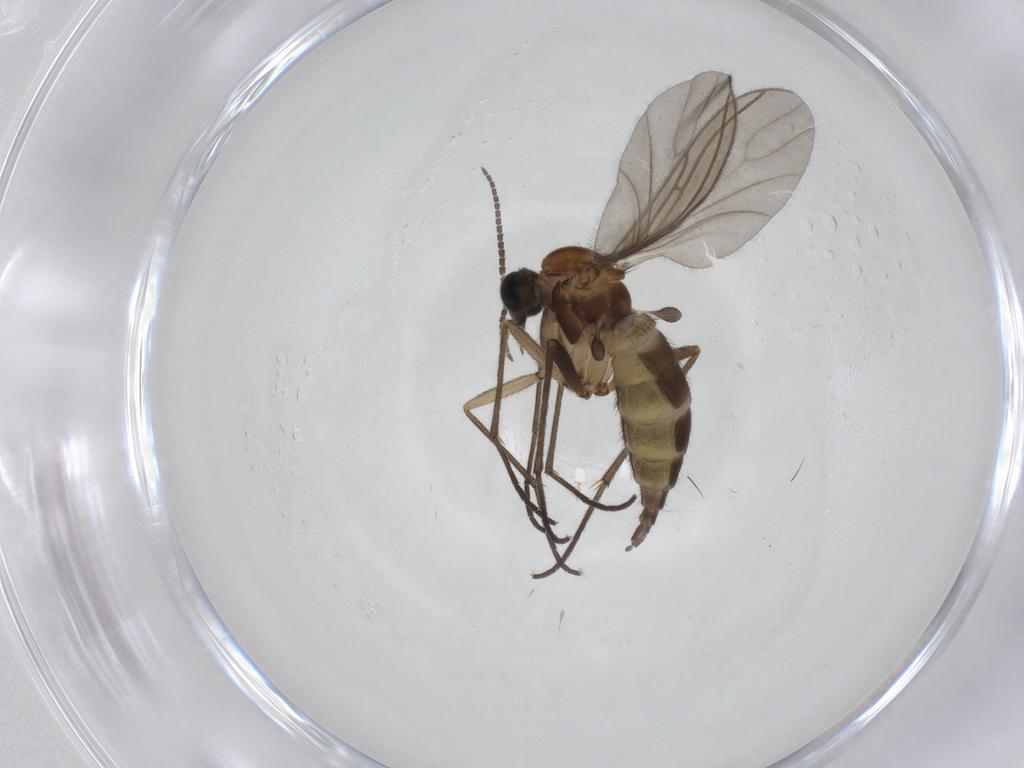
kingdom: Animalia
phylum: Arthropoda
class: Insecta
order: Diptera
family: Sciaridae
